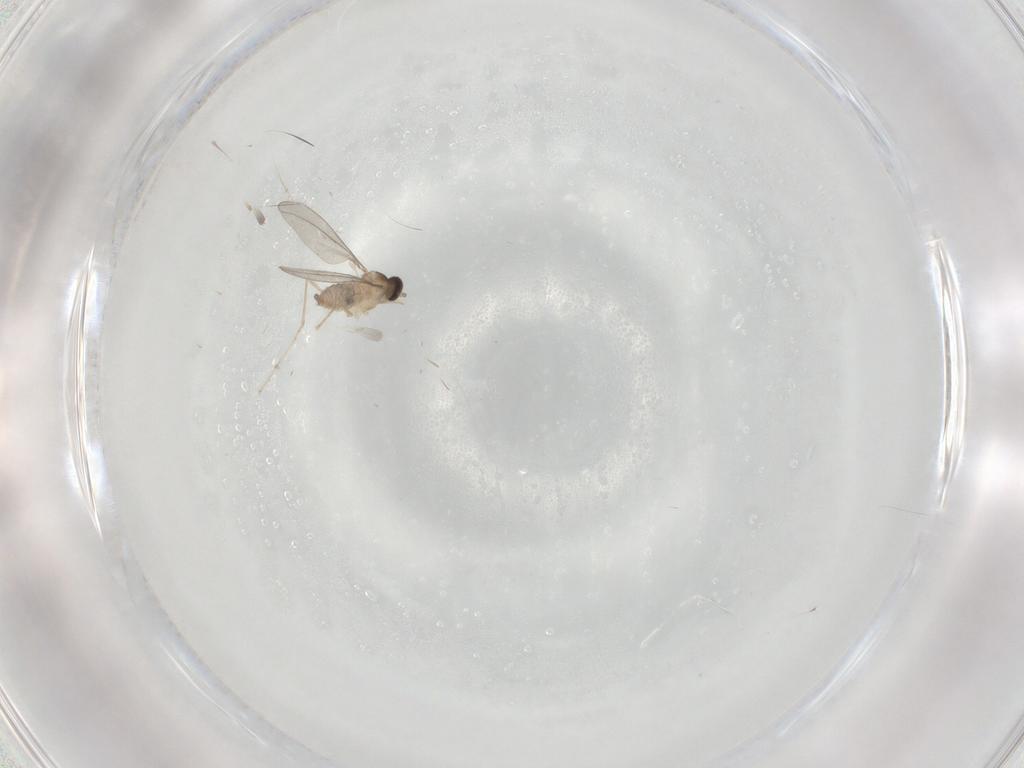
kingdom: Animalia
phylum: Arthropoda
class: Insecta
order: Diptera
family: Cecidomyiidae
